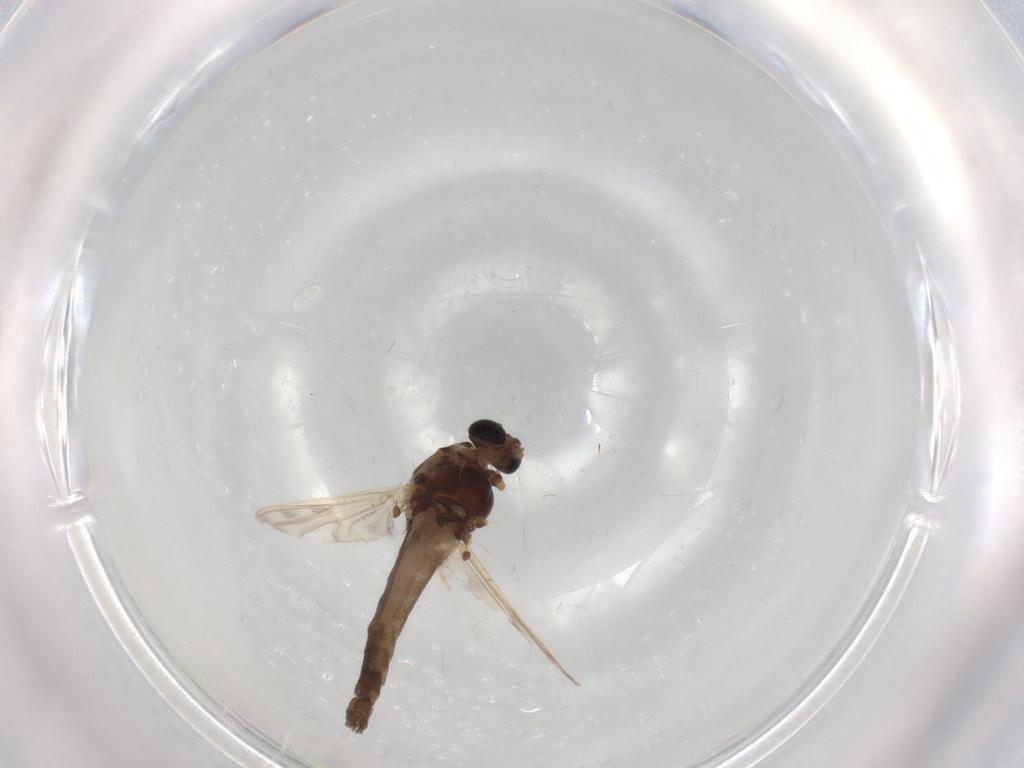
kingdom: Animalia
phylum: Arthropoda
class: Insecta
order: Diptera
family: Chironomidae
